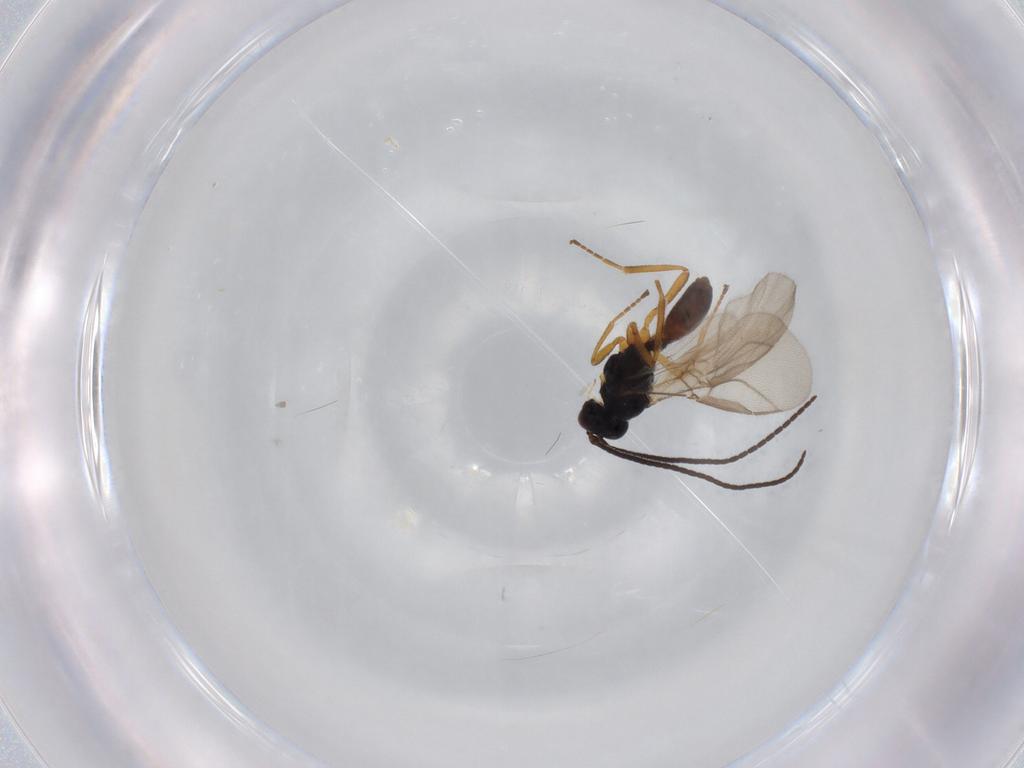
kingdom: Animalia
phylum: Arthropoda
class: Insecta
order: Hymenoptera
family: Braconidae
